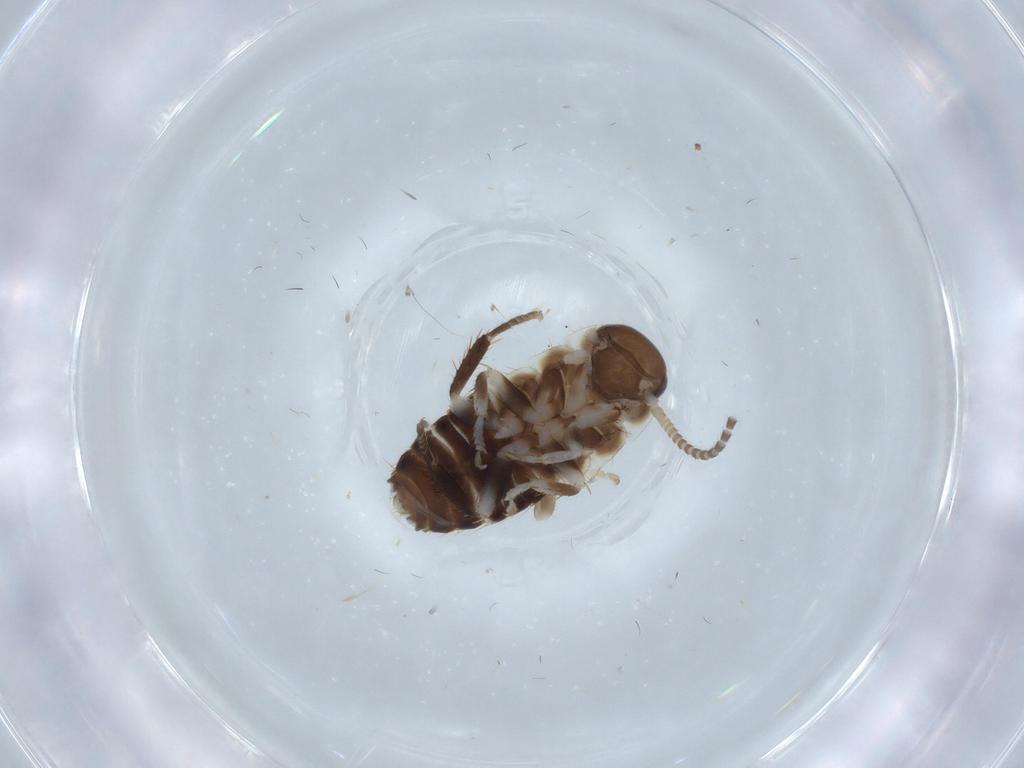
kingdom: Animalia
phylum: Arthropoda
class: Insecta
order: Blattodea
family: Ectobiidae
